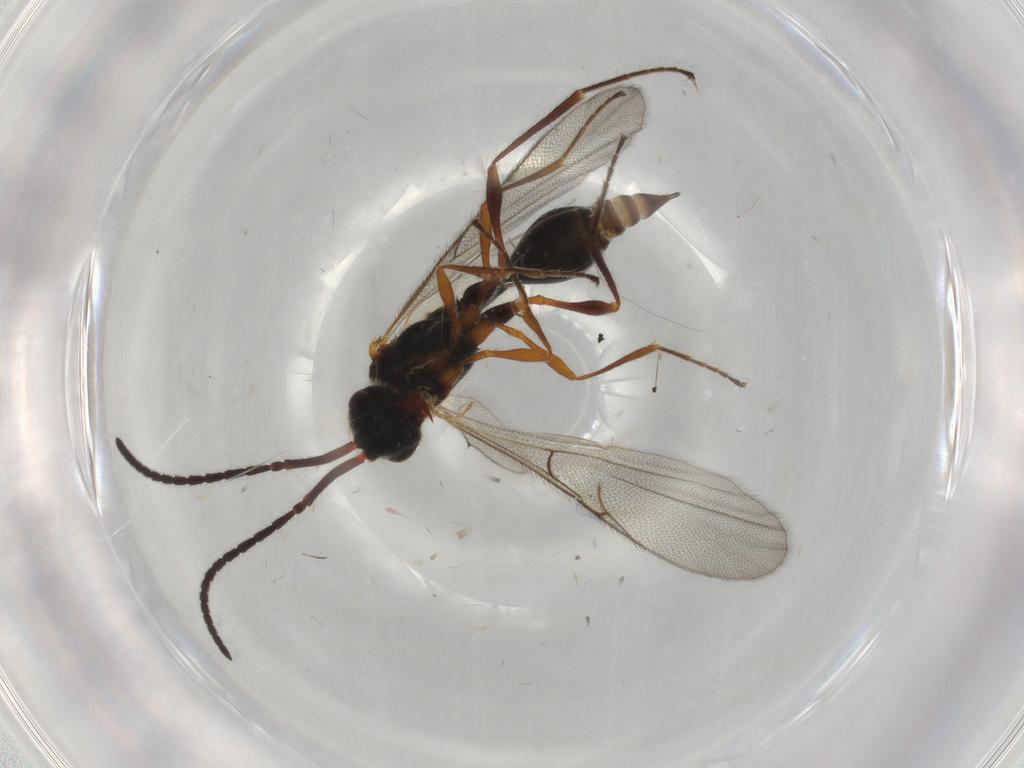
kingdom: Animalia
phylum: Arthropoda
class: Insecta
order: Hymenoptera
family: Diapriidae
